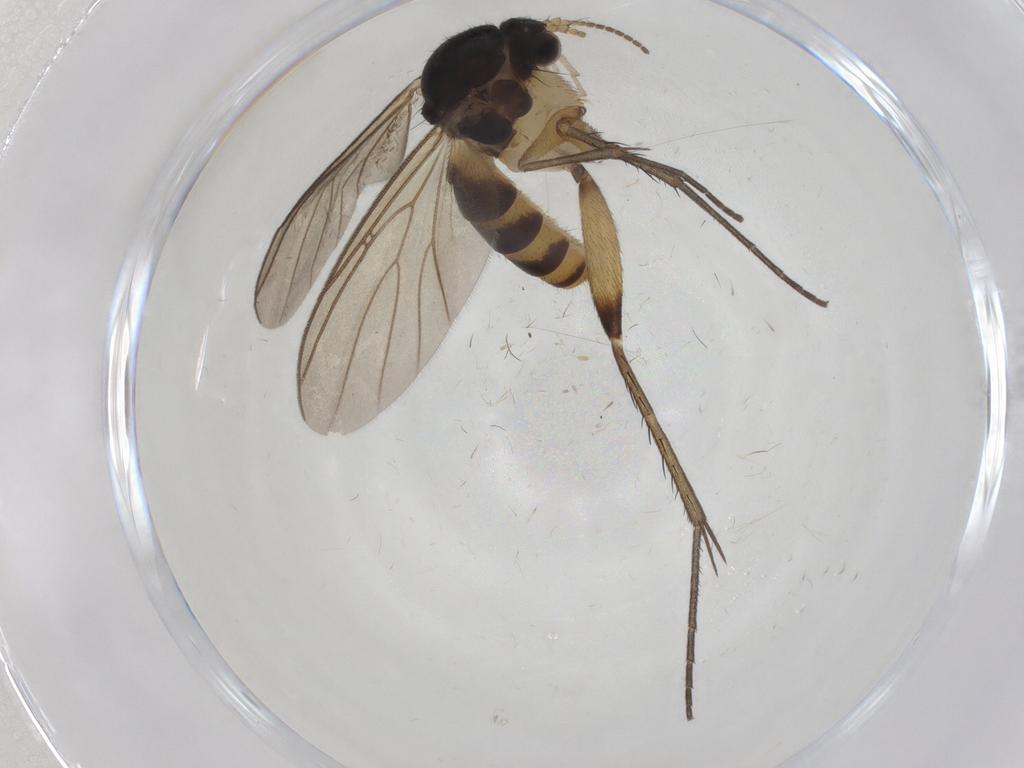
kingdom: Animalia
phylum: Arthropoda
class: Insecta
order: Diptera
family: Mycetophilidae
